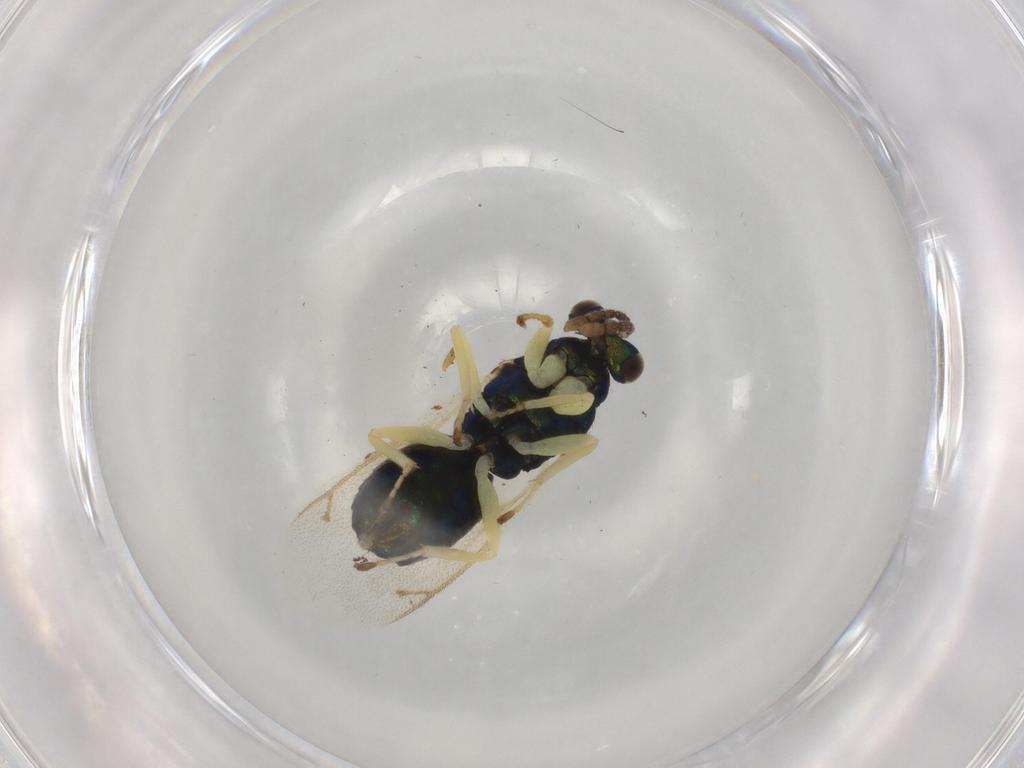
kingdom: Animalia
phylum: Arthropoda
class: Insecta
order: Hymenoptera
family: Eulophidae
